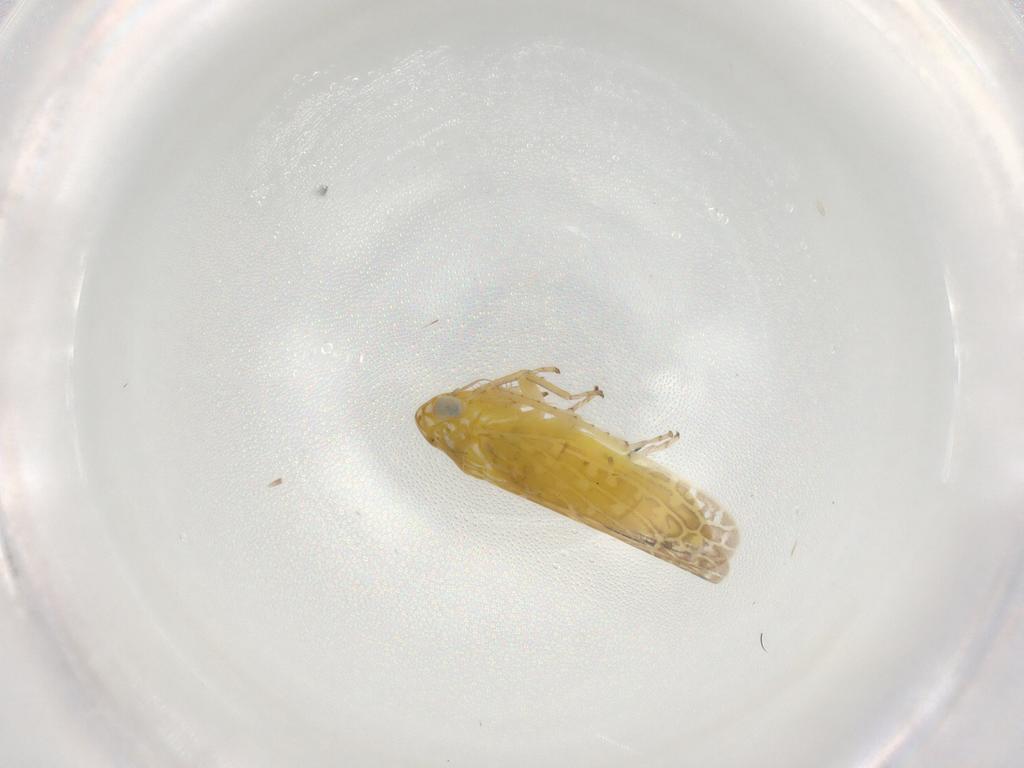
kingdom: Animalia
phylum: Arthropoda
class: Insecta
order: Hemiptera
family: Cicadellidae
